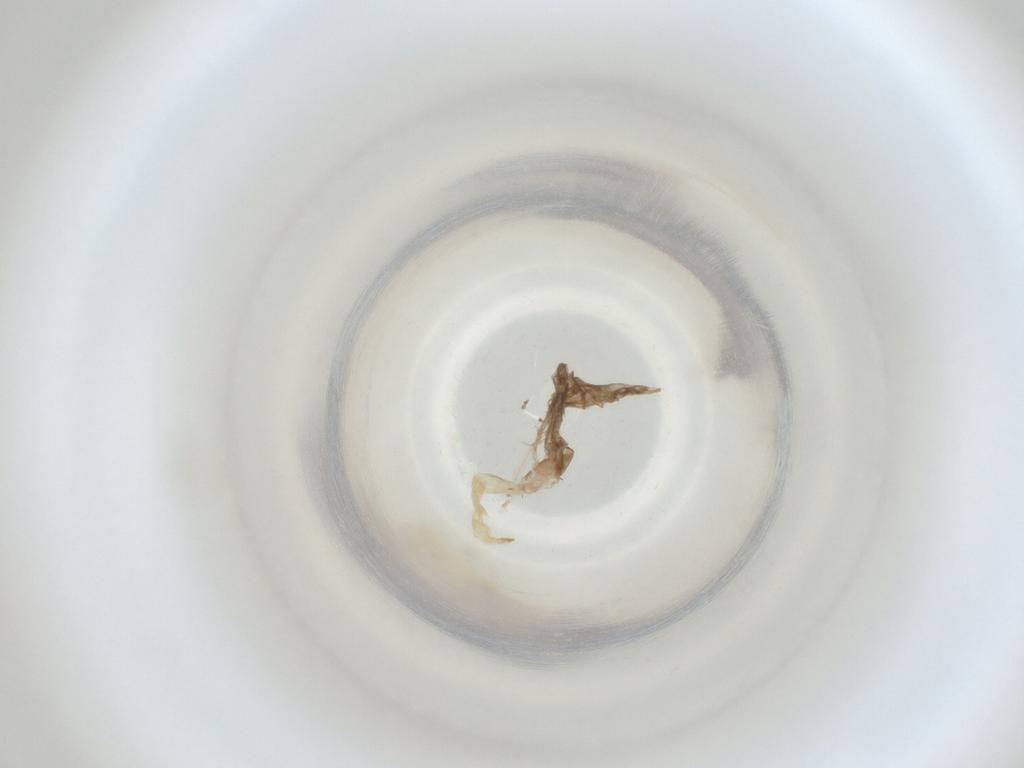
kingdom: Animalia
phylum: Arthropoda
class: Insecta
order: Diptera
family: Cecidomyiidae
